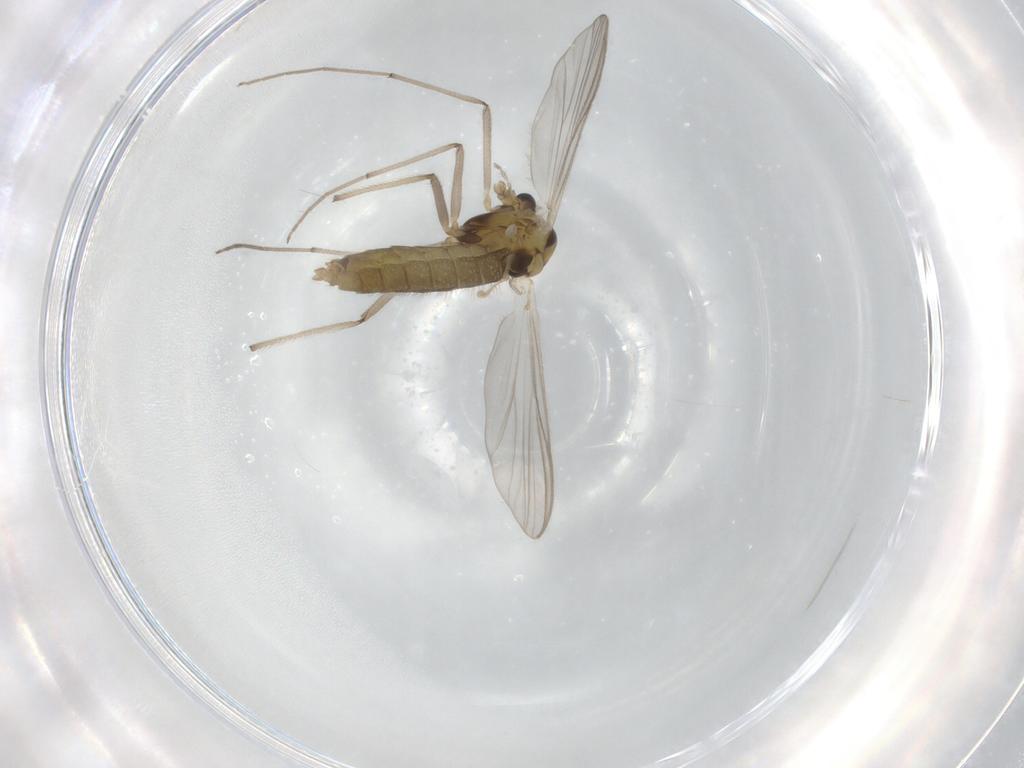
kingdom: Animalia
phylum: Arthropoda
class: Insecta
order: Diptera
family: Chironomidae
